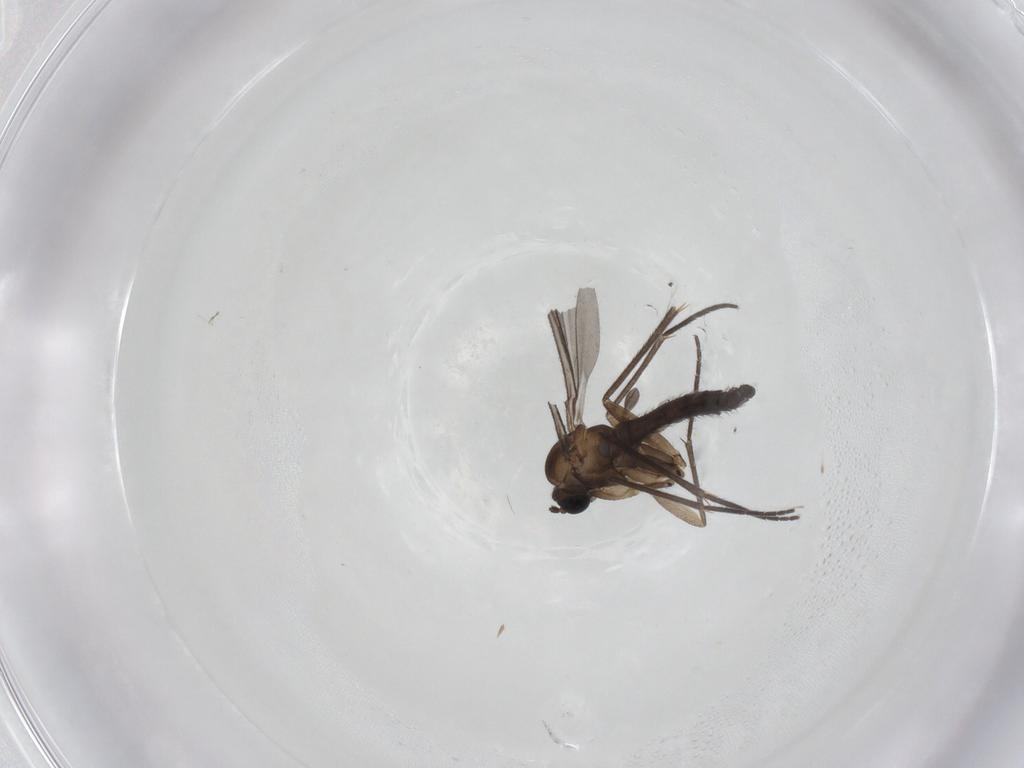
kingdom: Animalia
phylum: Arthropoda
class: Insecta
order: Diptera
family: Sciaridae
